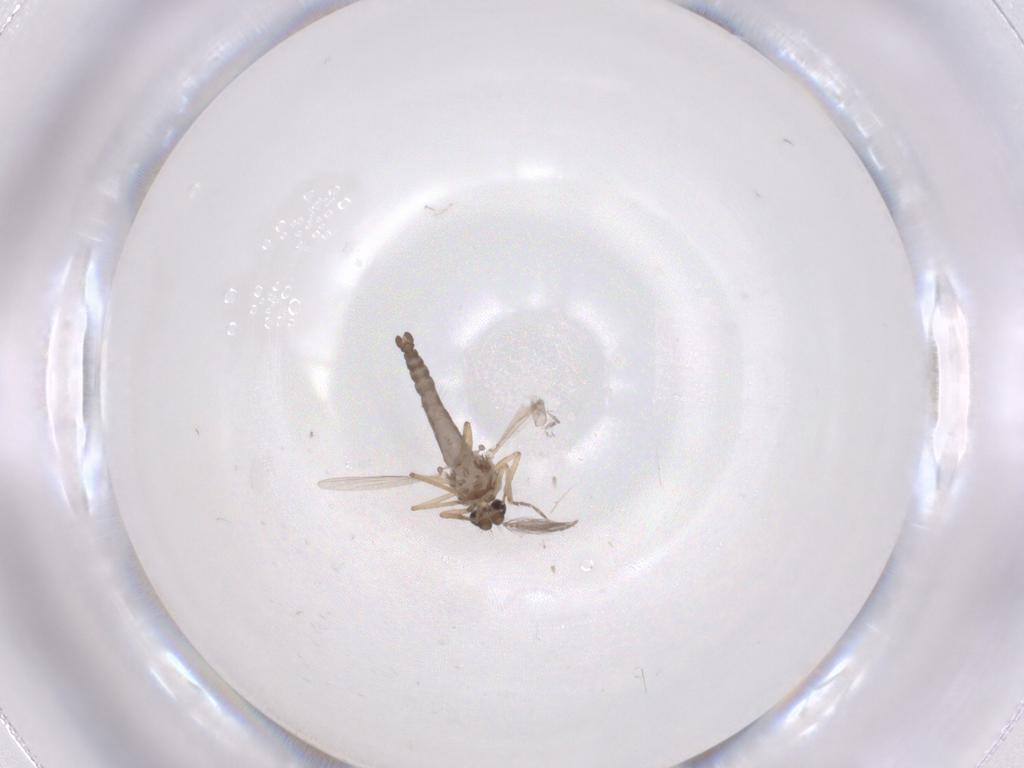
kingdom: Animalia
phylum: Arthropoda
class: Insecta
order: Diptera
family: Ceratopogonidae
